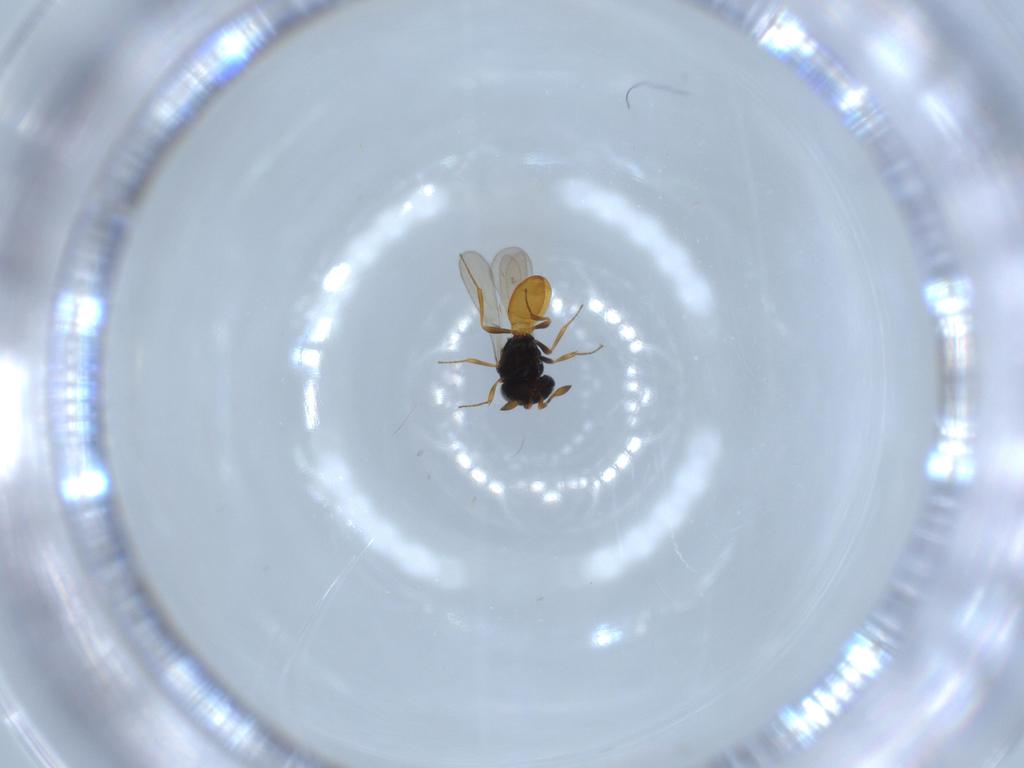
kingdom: Animalia
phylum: Arthropoda
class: Insecta
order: Hymenoptera
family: Scelionidae
